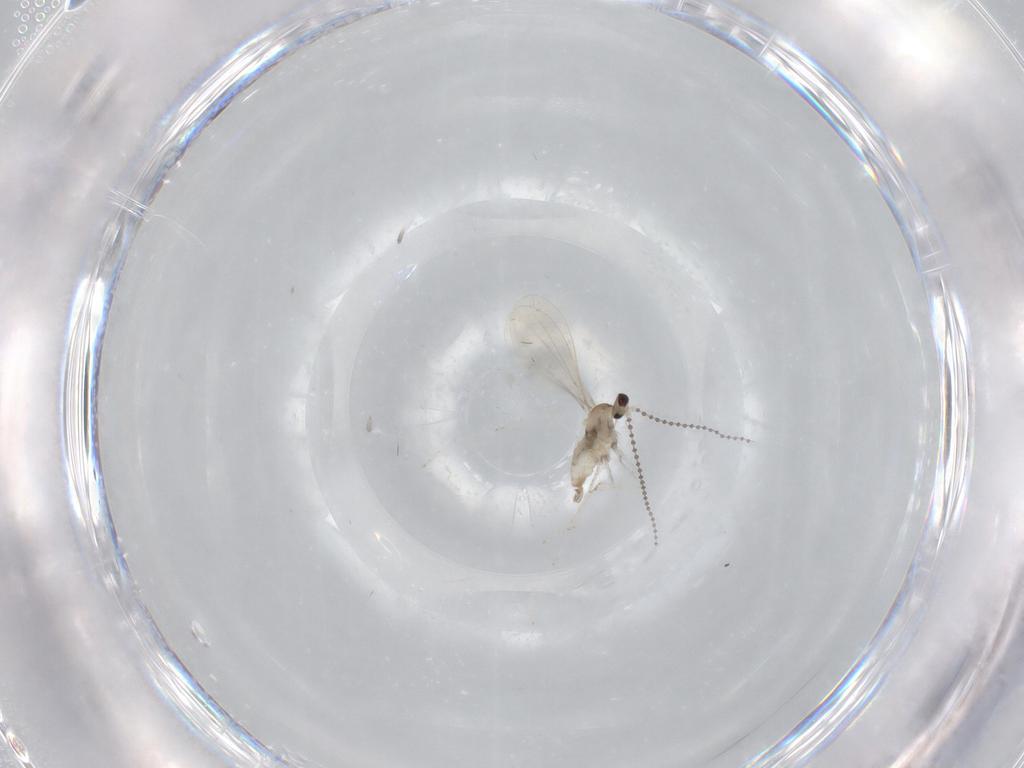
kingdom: Animalia
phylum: Arthropoda
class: Insecta
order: Diptera
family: Cecidomyiidae
